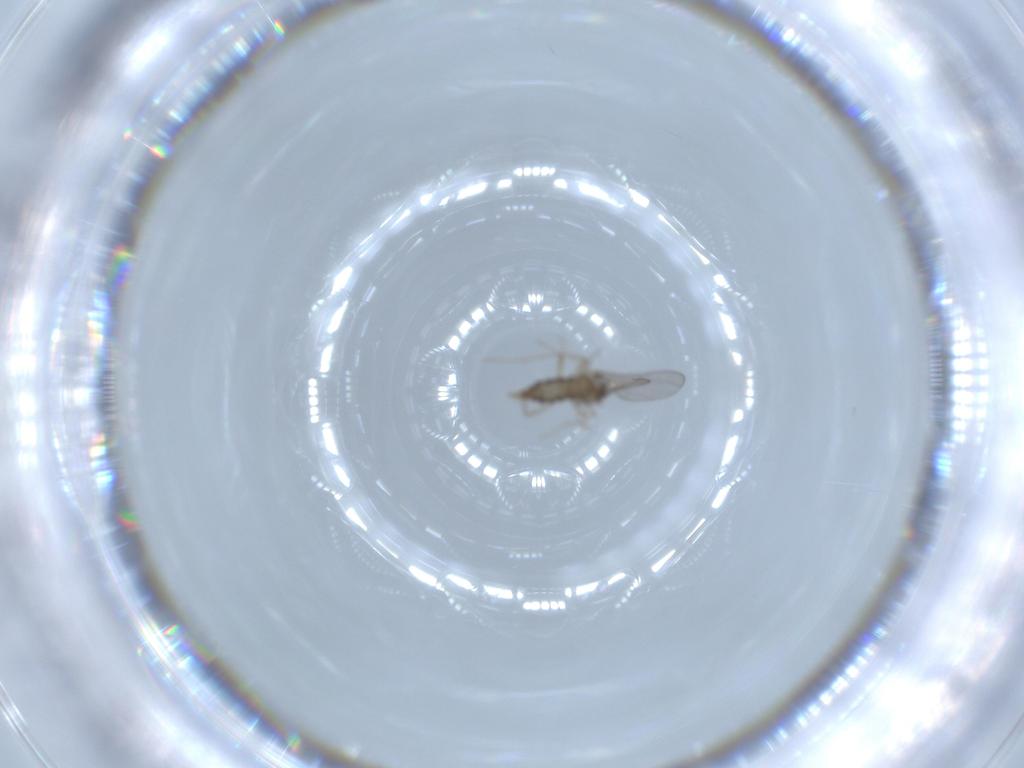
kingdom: Animalia
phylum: Arthropoda
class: Insecta
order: Diptera
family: Cecidomyiidae
